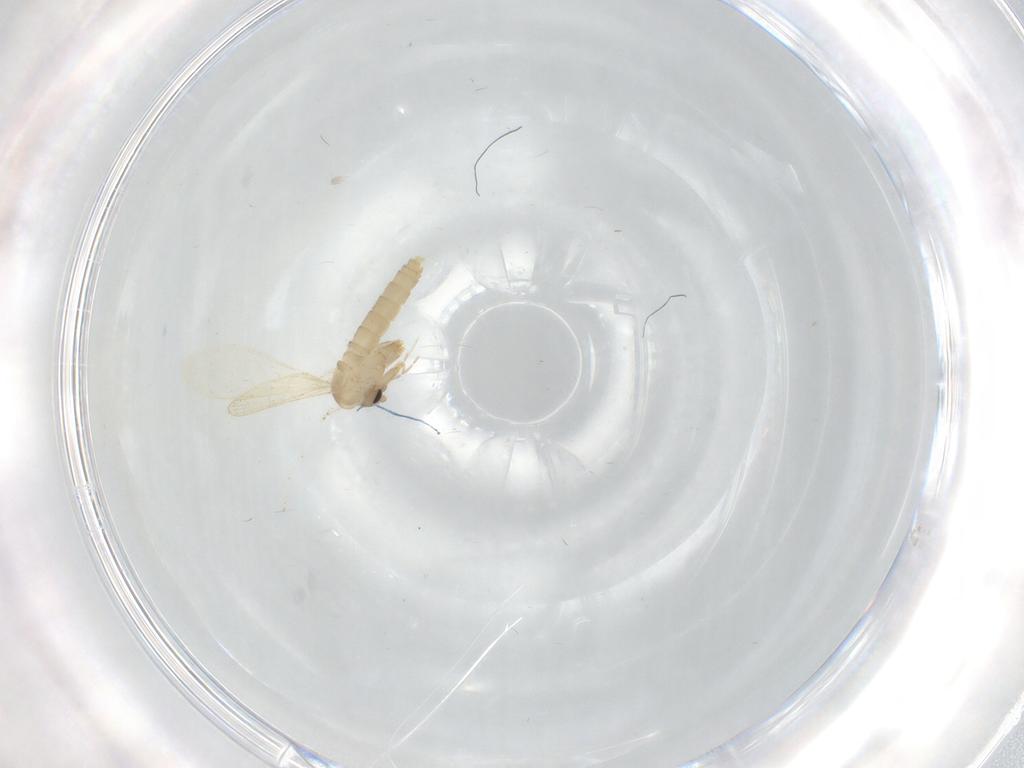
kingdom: Animalia
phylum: Arthropoda
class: Insecta
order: Diptera
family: Psychodidae
